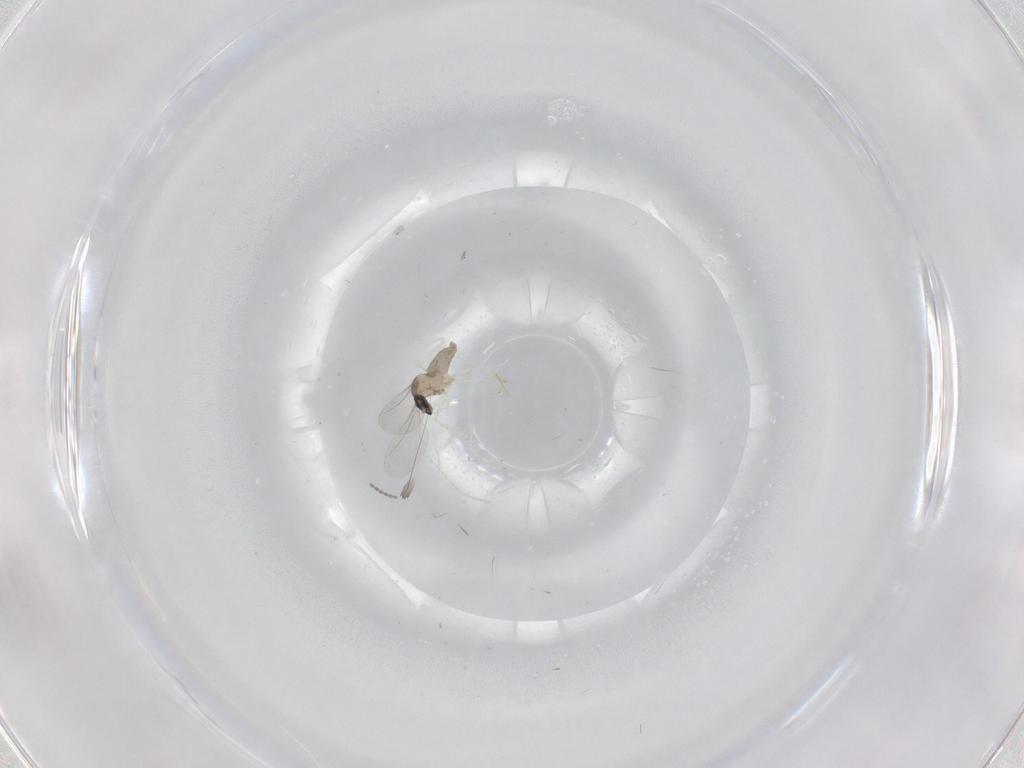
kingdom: Animalia
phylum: Arthropoda
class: Insecta
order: Diptera
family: Cecidomyiidae
